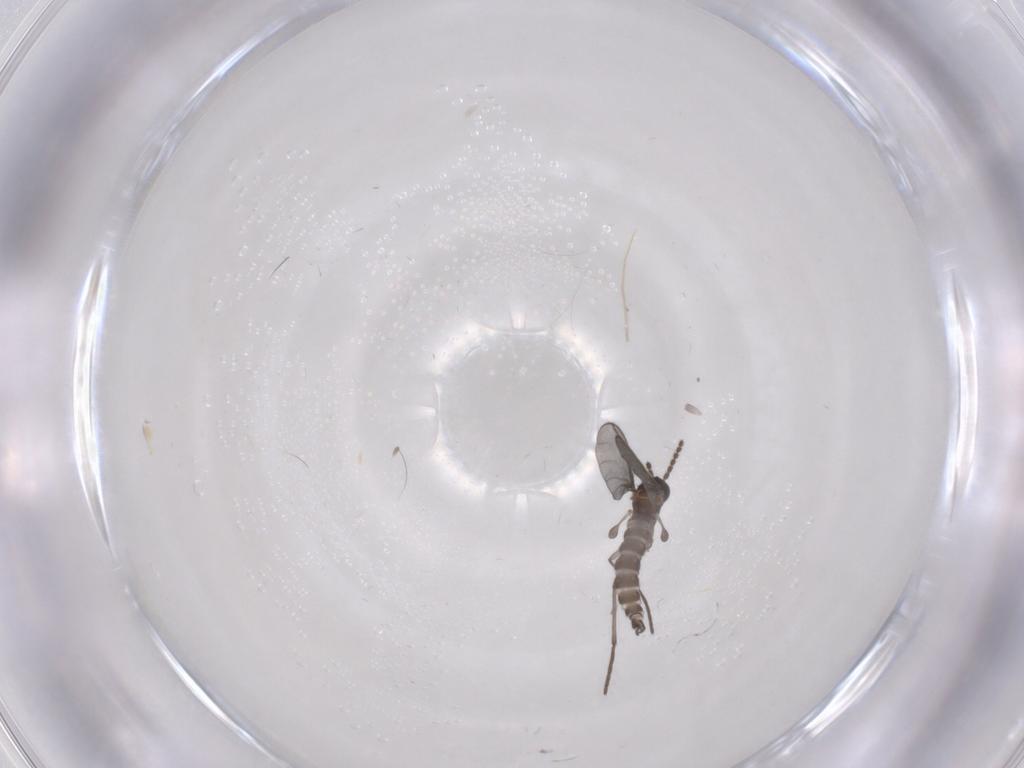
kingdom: Animalia
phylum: Arthropoda
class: Insecta
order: Diptera
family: Sciaridae
